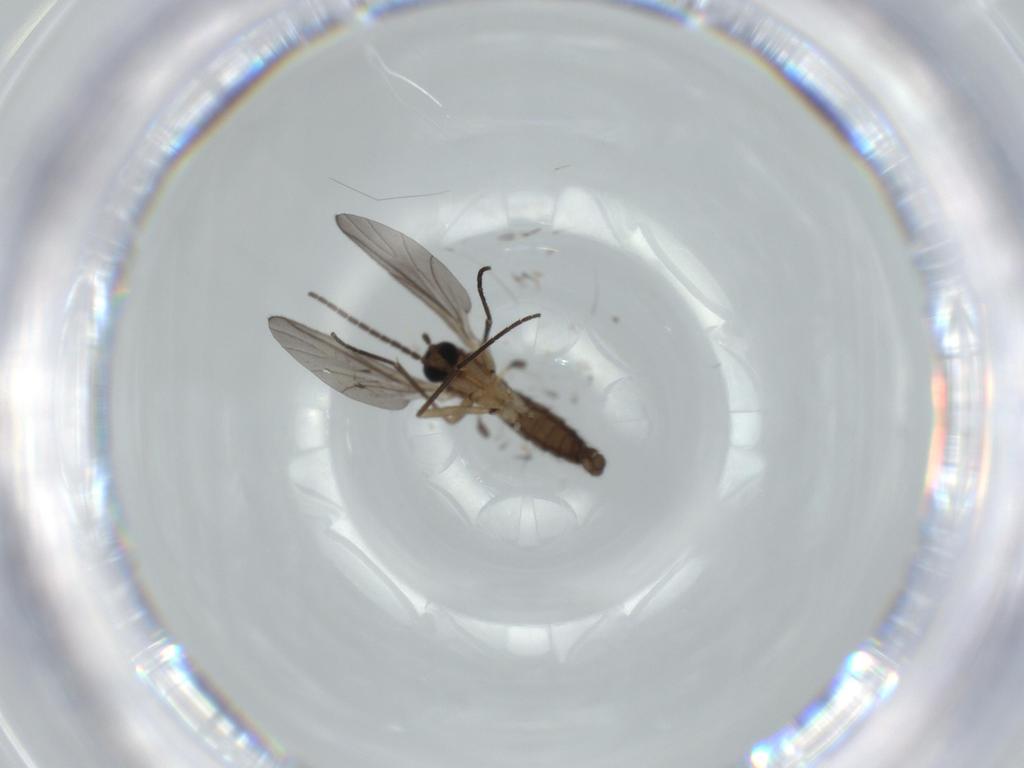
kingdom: Animalia
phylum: Arthropoda
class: Insecta
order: Diptera
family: Sciaridae
